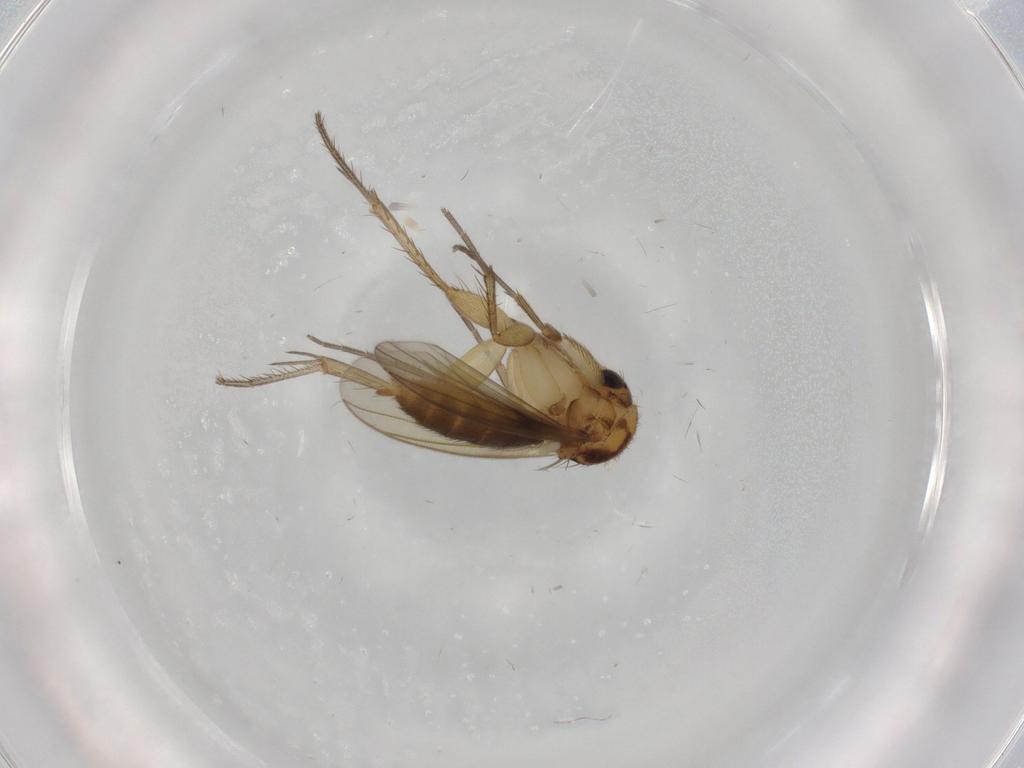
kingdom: Animalia
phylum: Arthropoda
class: Insecta
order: Diptera
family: Mycetophilidae
